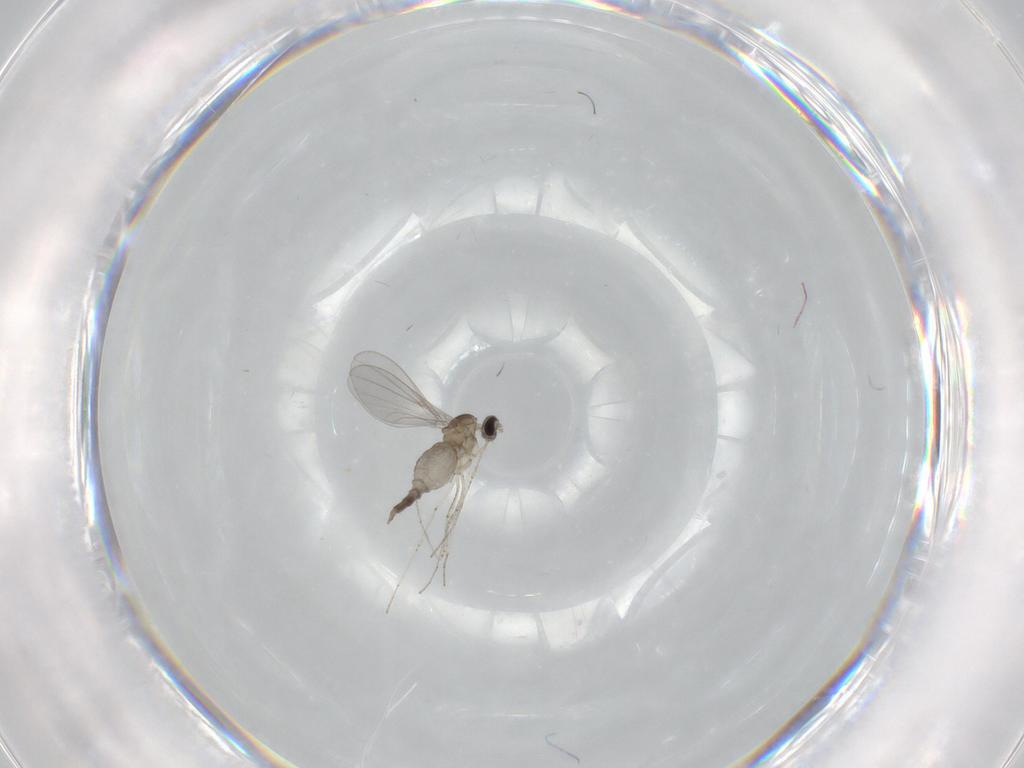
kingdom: Animalia
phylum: Arthropoda
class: Insecta
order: Diptera
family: Cecidomyiidae
